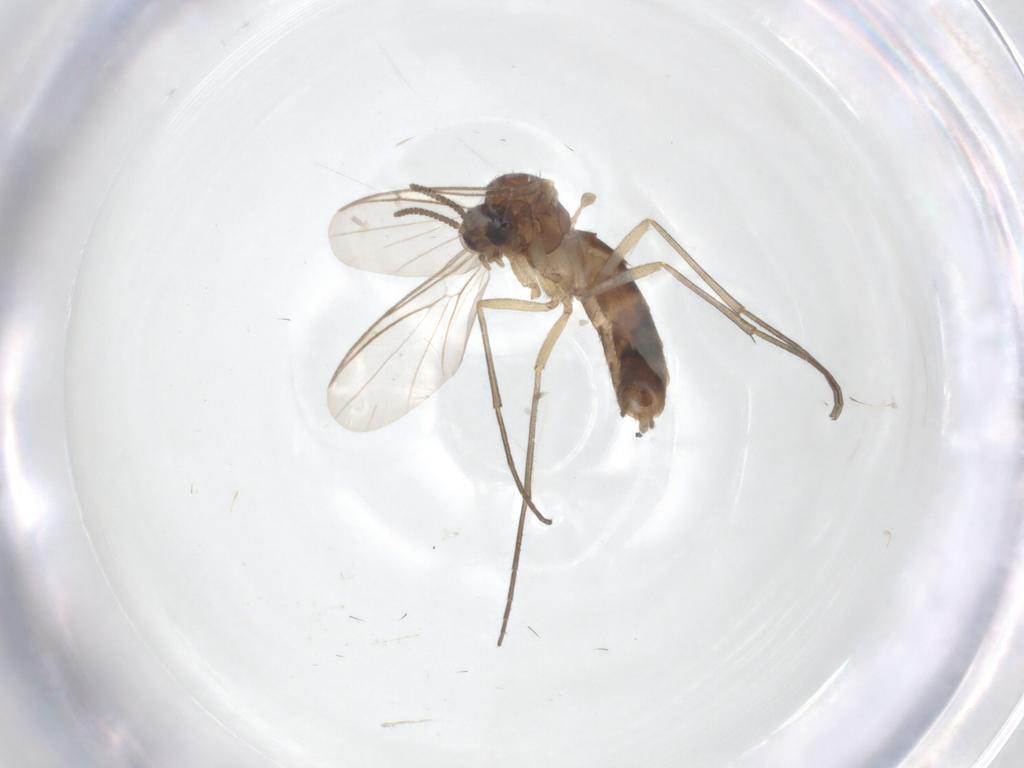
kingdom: Animalia
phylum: Arthropoda
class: Insecta
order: Diptera
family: Keroplatidae
